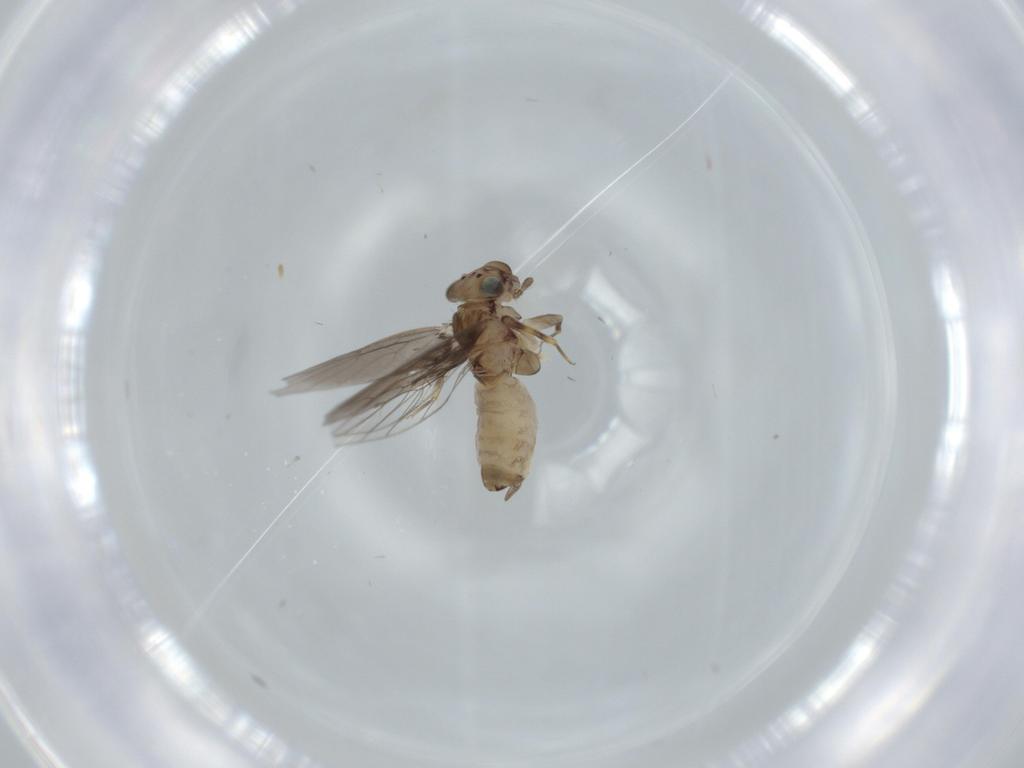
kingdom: Animalia
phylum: Arthropoda
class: Insecta
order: Psocodea
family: Lepidopsocidae
